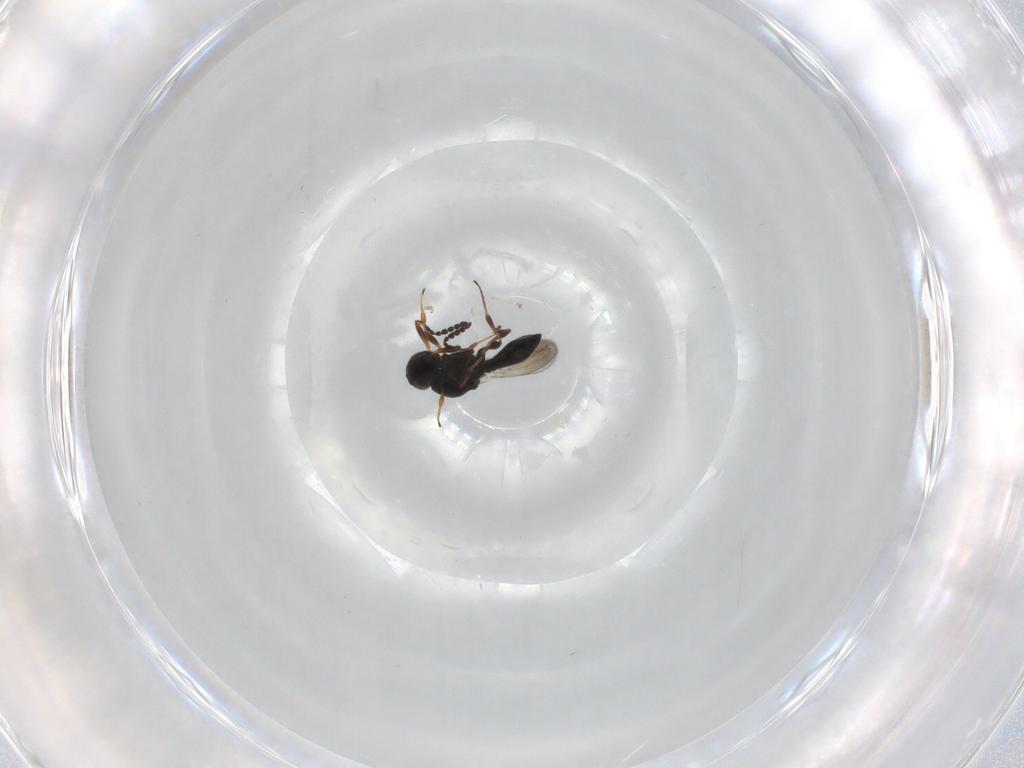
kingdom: Animalia
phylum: Arthropoda
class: Insecta
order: Hymenoptera
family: Platygastridae
